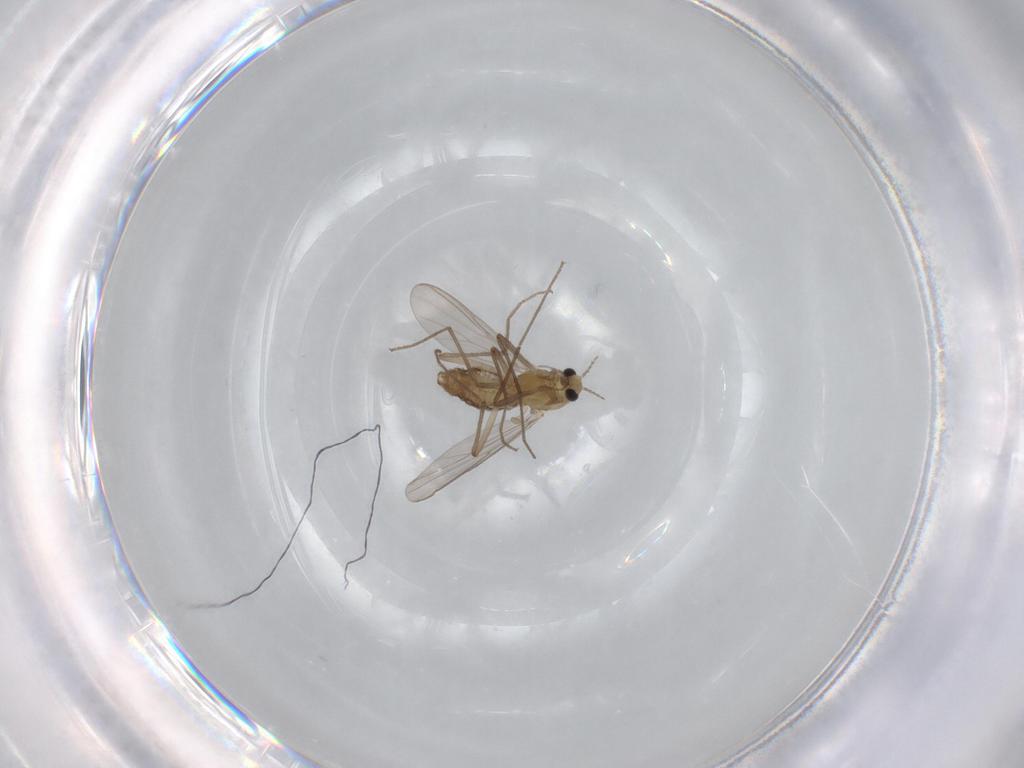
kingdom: Animalia
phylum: Arthropoda
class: Insecta
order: Diptera
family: Chironomidae
